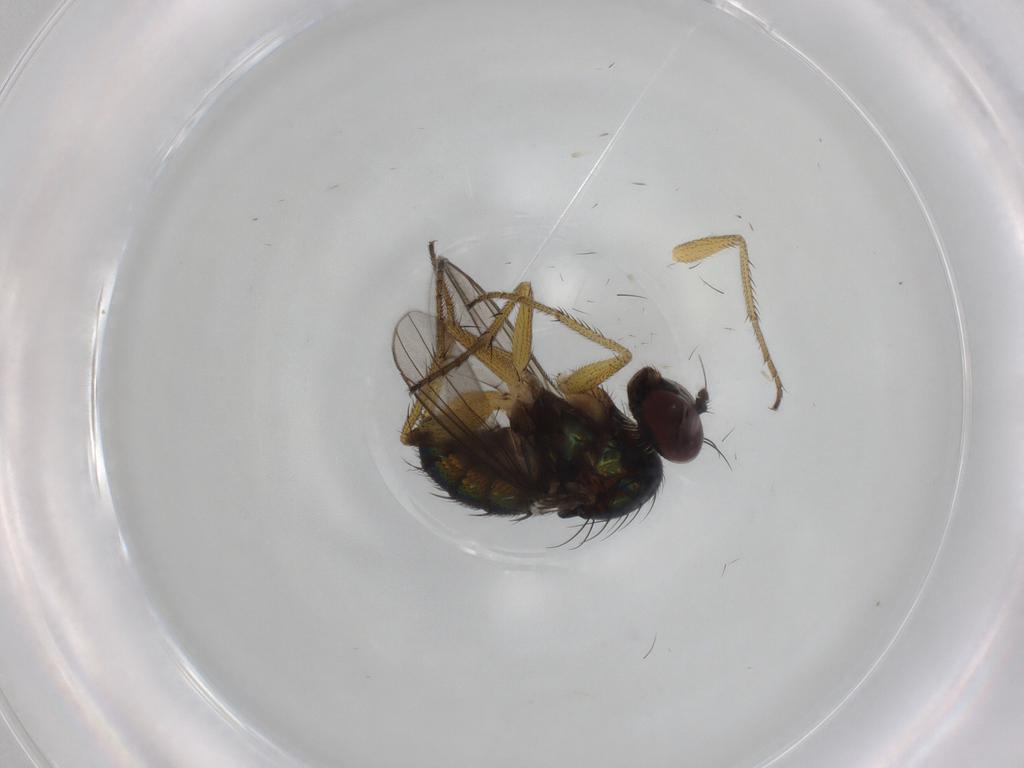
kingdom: Animalia
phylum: Arthropoda
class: Insecta
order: Diptera
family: Dolichopodidae
